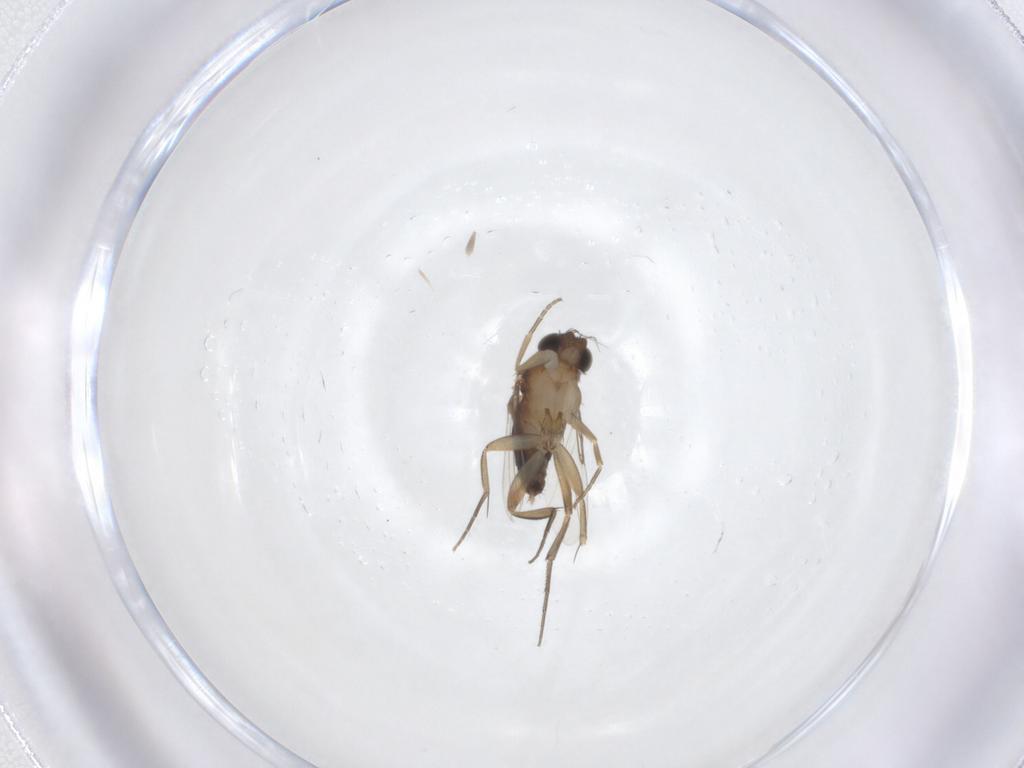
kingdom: Animalia
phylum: Arthropoda
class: Insecta
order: Diptera
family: Phoridae
